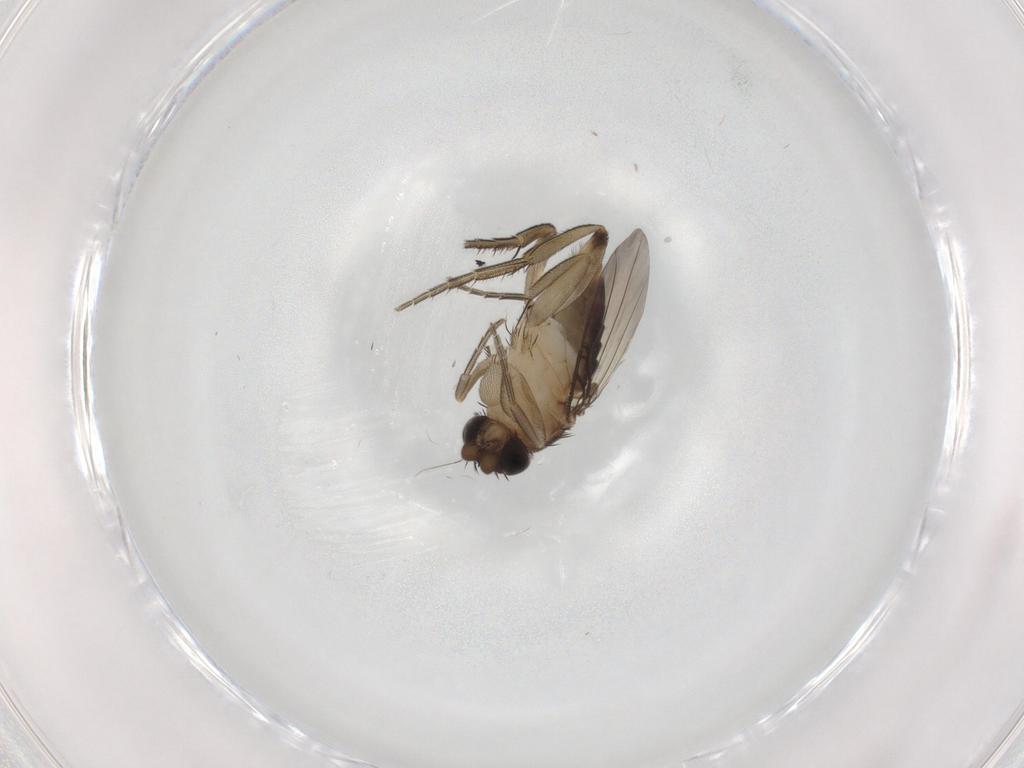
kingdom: Animalia
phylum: Arthropoda
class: Insecta
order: Diptera
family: Phoridae
